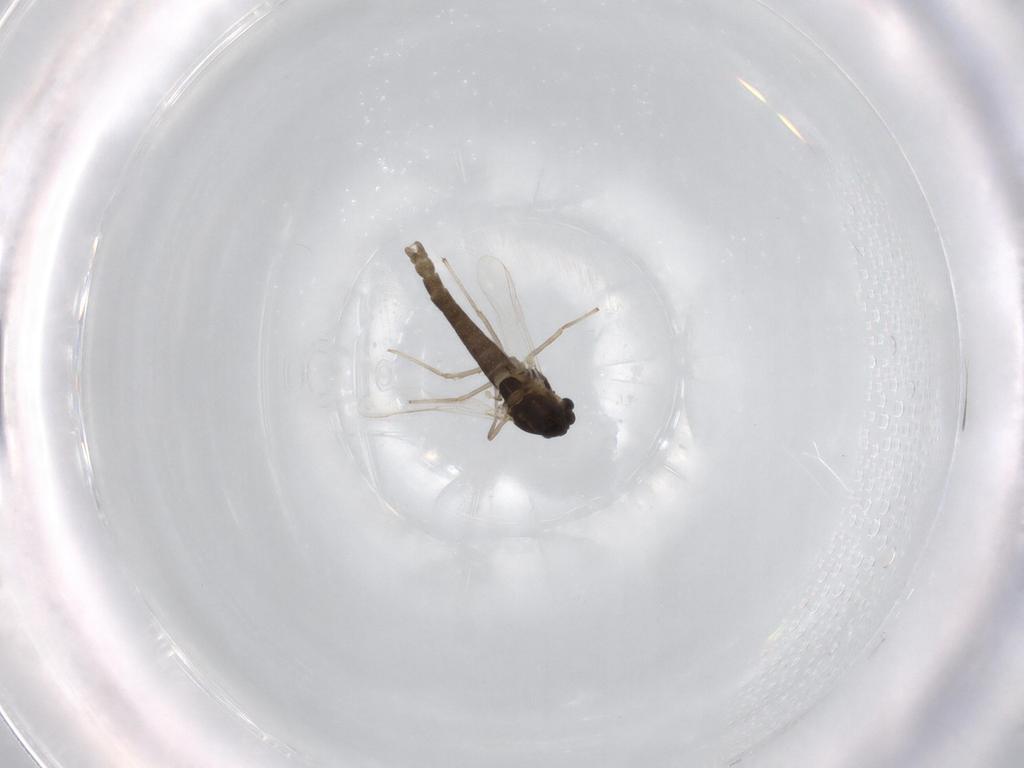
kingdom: Animalia
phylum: Arthropoda
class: Insecta
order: Diptera
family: Chironomidae
